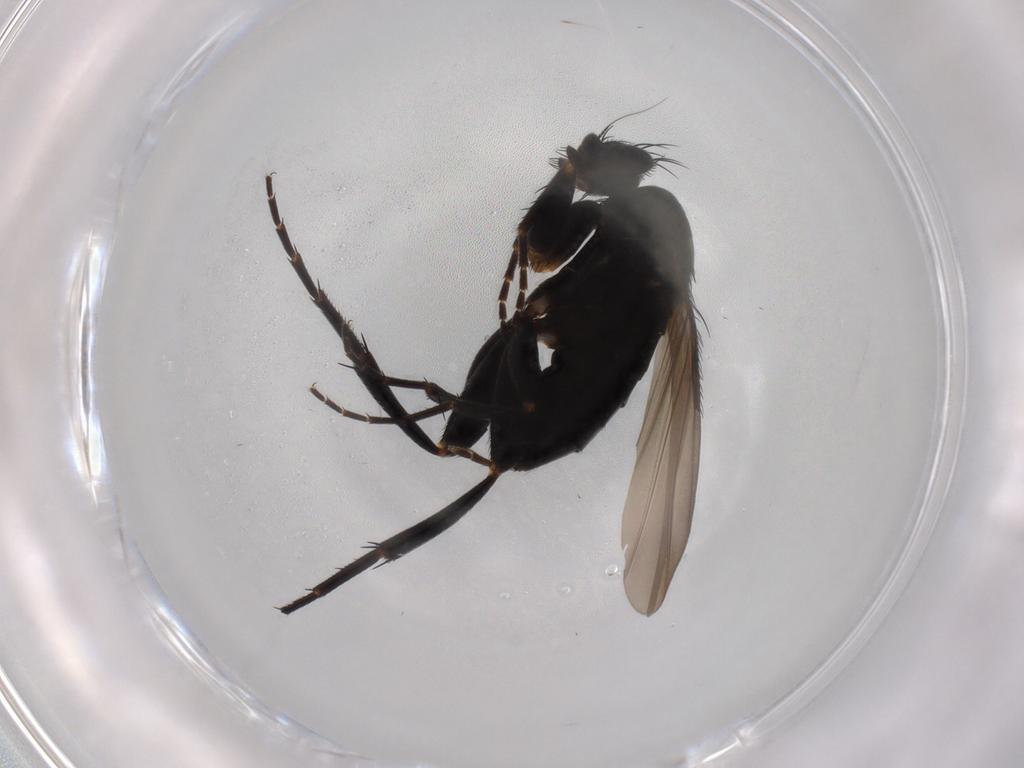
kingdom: Animalia
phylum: Arthropoda
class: Insecta
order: Diptera
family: Phoridae
